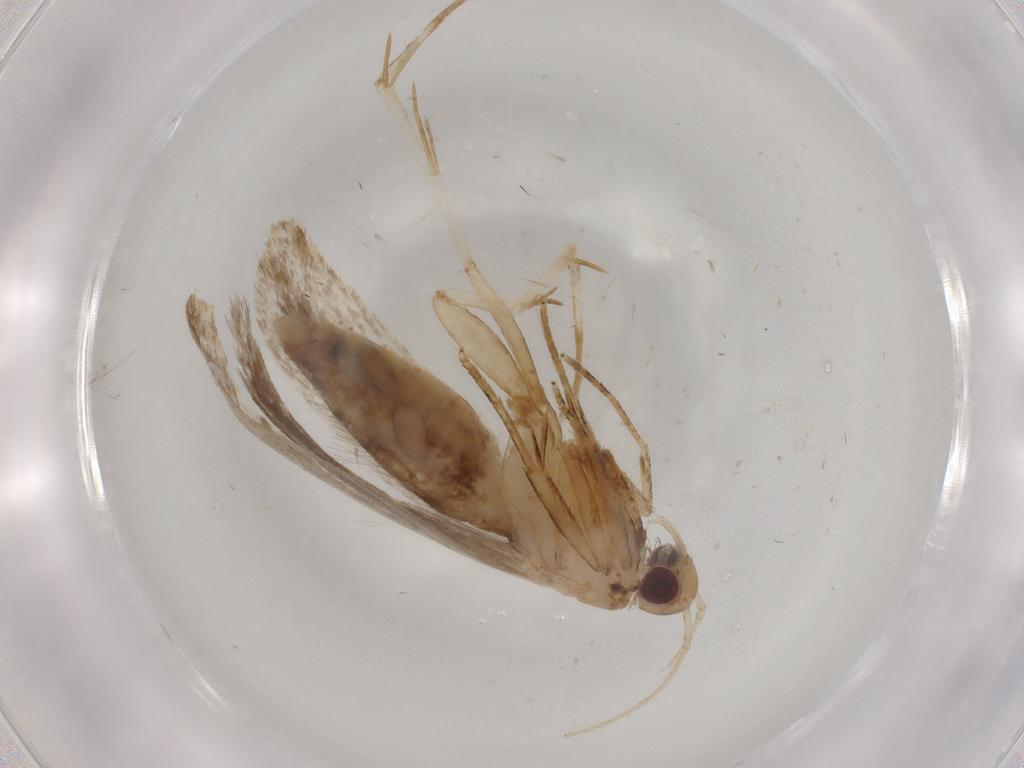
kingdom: Animalia
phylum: Arthropoda
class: Insecta
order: Lepidoptera
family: Gelechiidae
